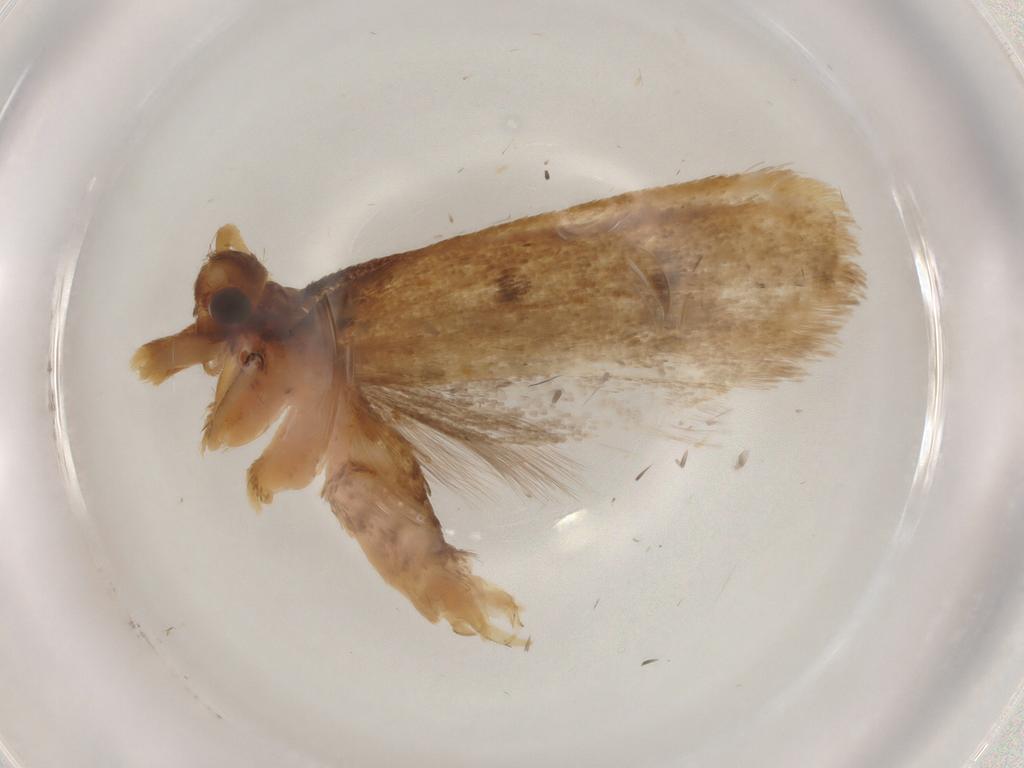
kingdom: Animalia
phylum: Arthropoda
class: Insecta
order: Lepidoptera
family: Lecithoceridae
